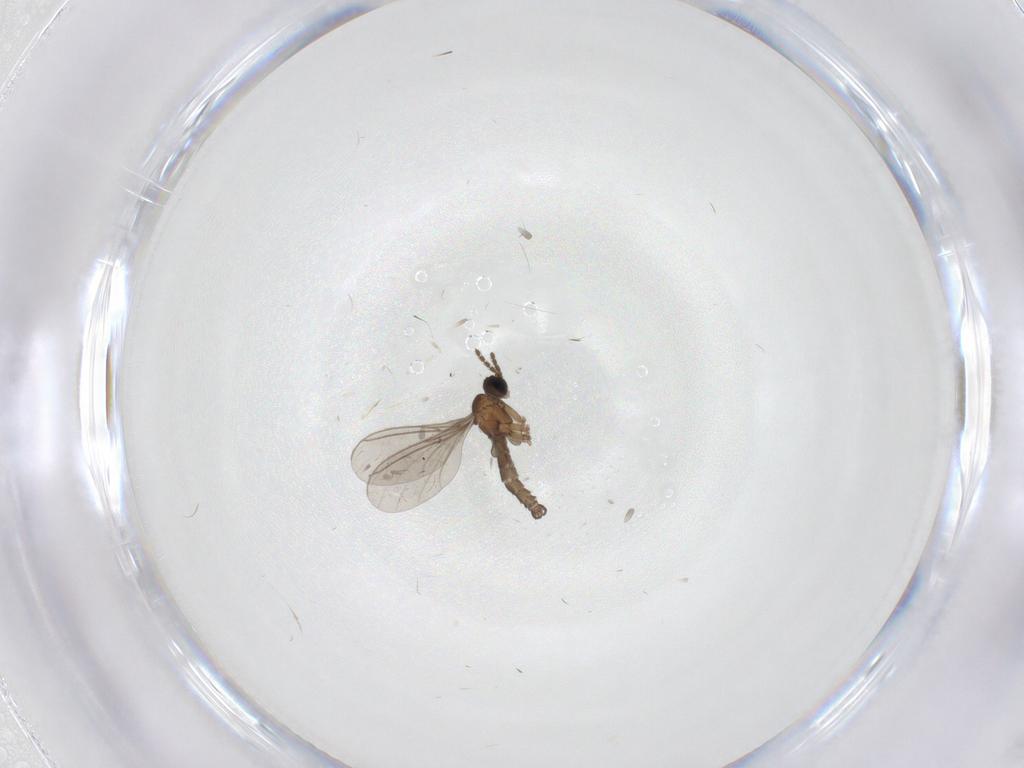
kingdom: Animalia
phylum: Arthropoda
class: Insecta
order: Diptera
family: Sciaridae
